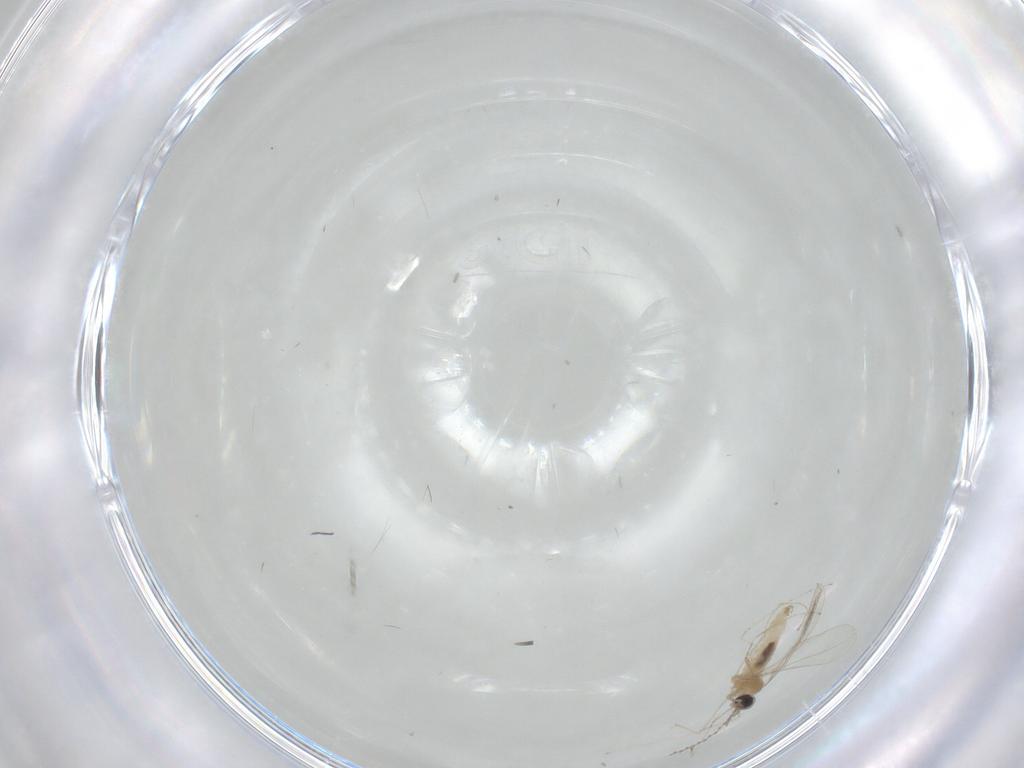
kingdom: Animalia
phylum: Arthropoda
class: Insecta
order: Diptera
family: Cecidomyiidae
